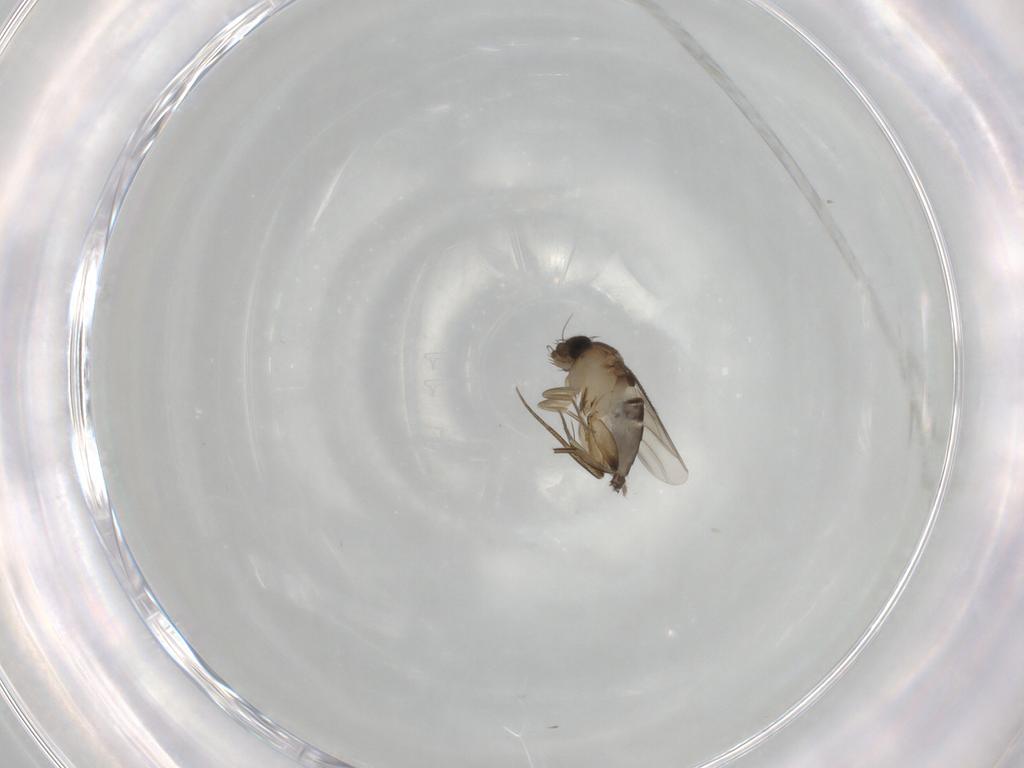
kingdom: Animalia
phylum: Arthropoda
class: Insecta
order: Diptera
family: Phoridae
